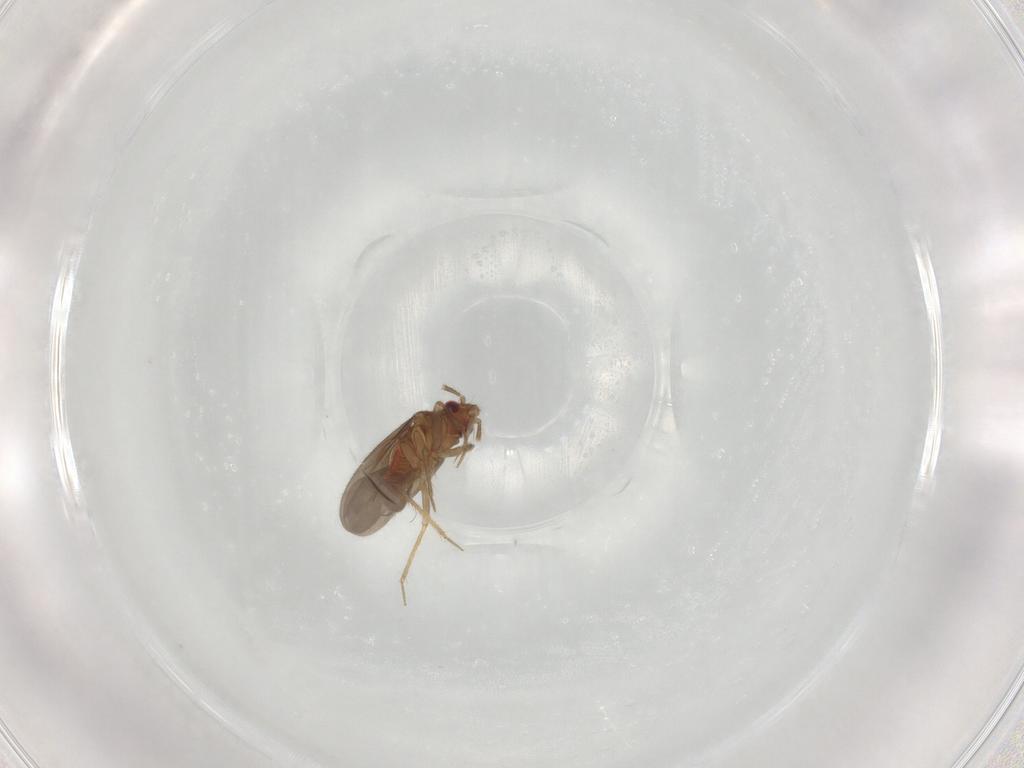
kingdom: Animalia
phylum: Arthropoda
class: Insecta
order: Hemiptera
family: Ceratocombidae
